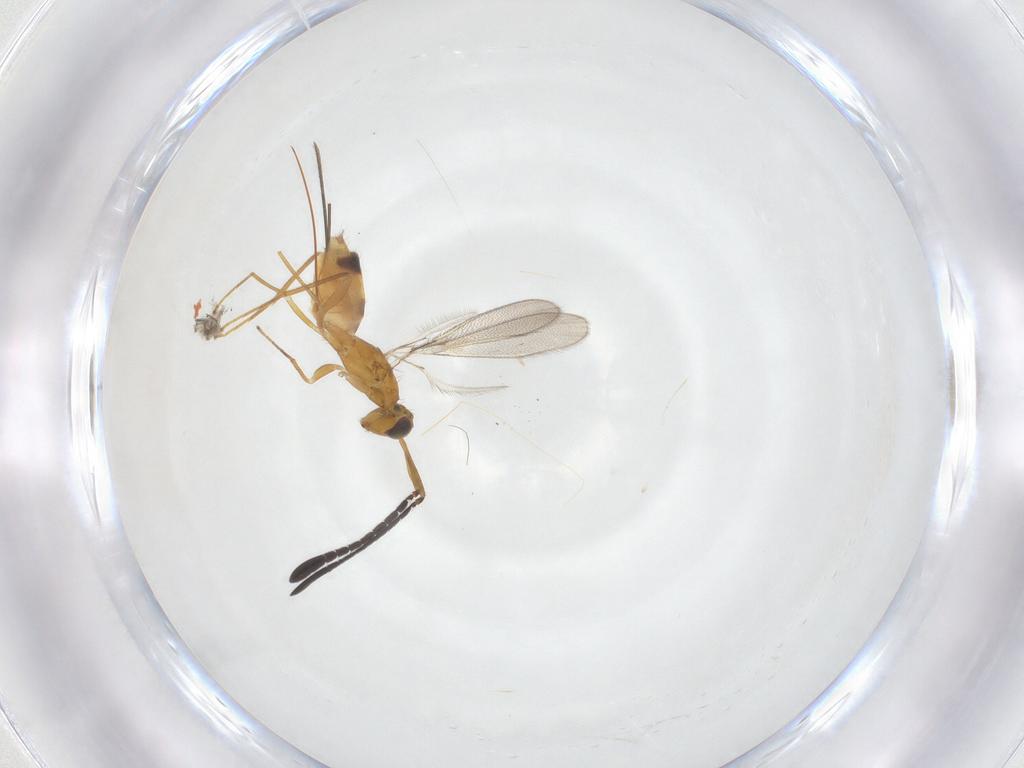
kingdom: Animalia
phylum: Arthropoda
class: Insecta
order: Hymenoptera
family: Mymaridae
